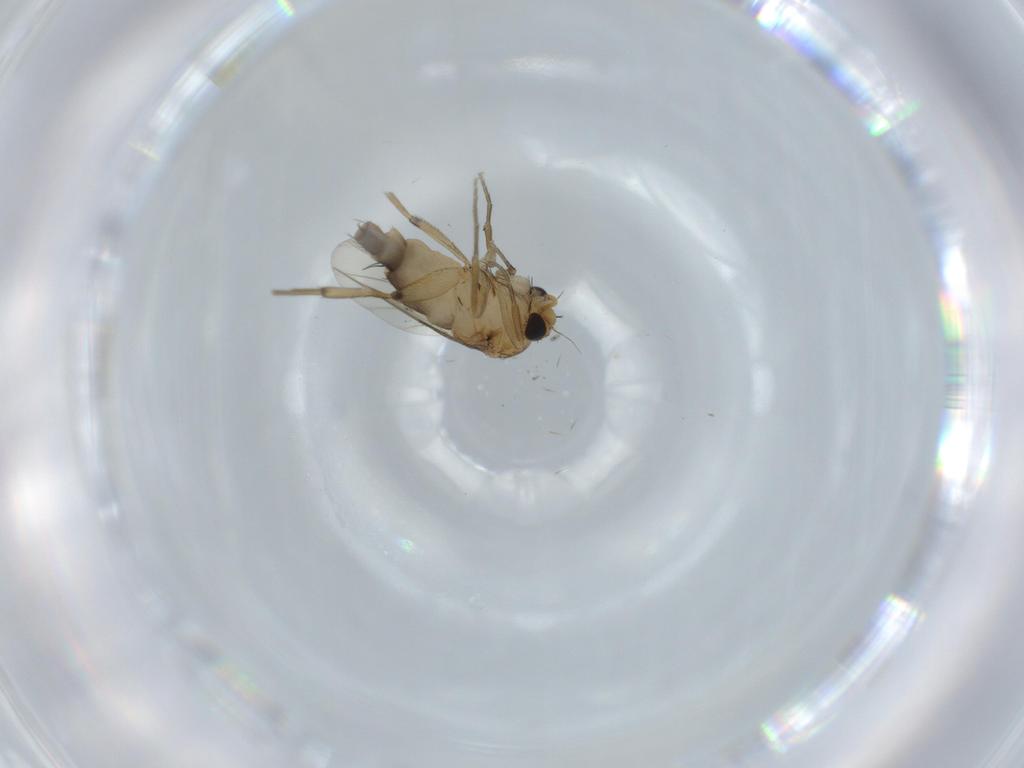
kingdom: Animalia
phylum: Arthropoda
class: Insecta
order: Diptera
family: Phoridae
